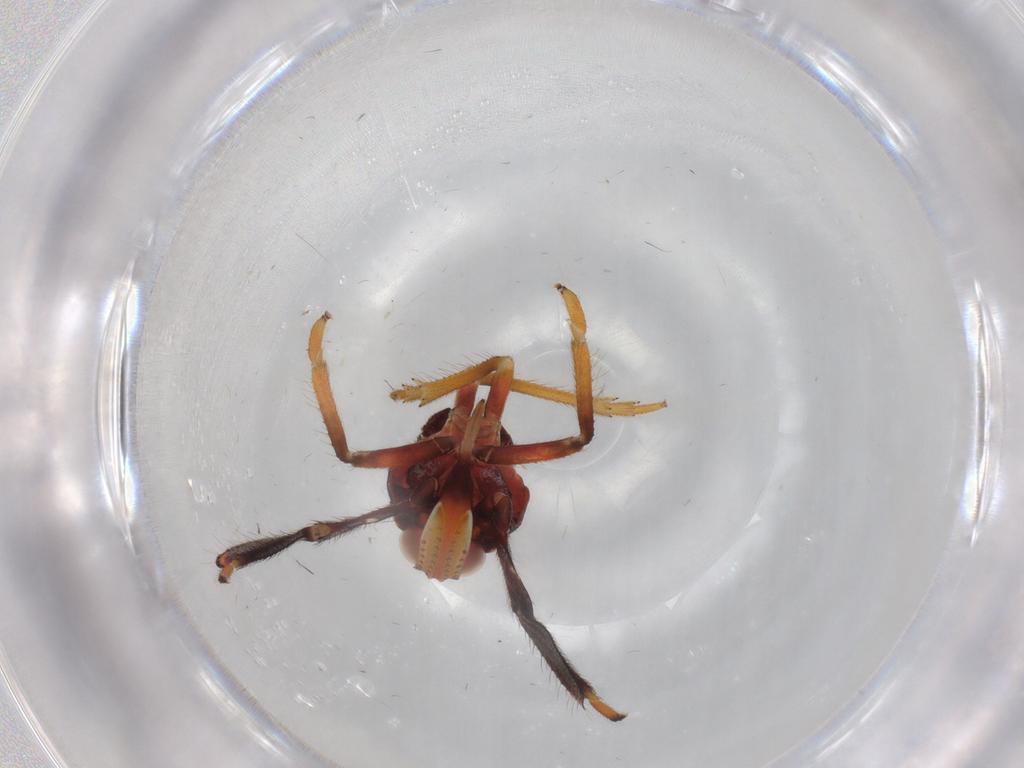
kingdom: Animalia
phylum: Arthropoda
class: Insecta
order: Hemiptera
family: Caliscelidae
